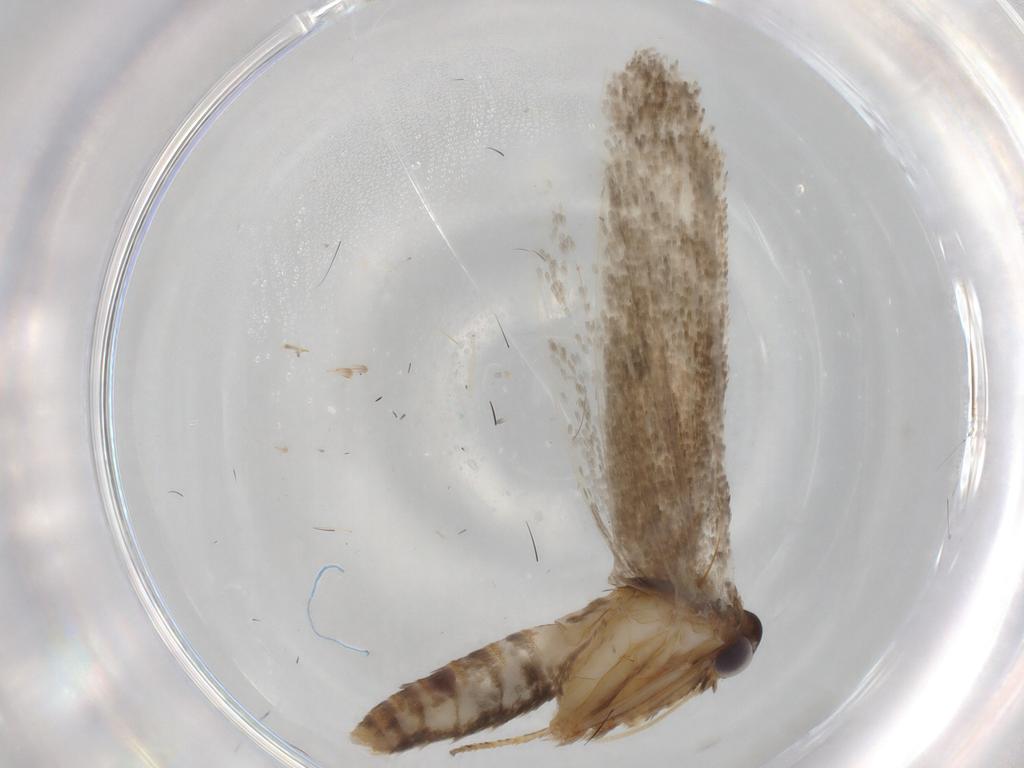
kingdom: Animalia
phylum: Arthropoda
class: Insecta
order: Lepidoptera
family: Blastobasidae
